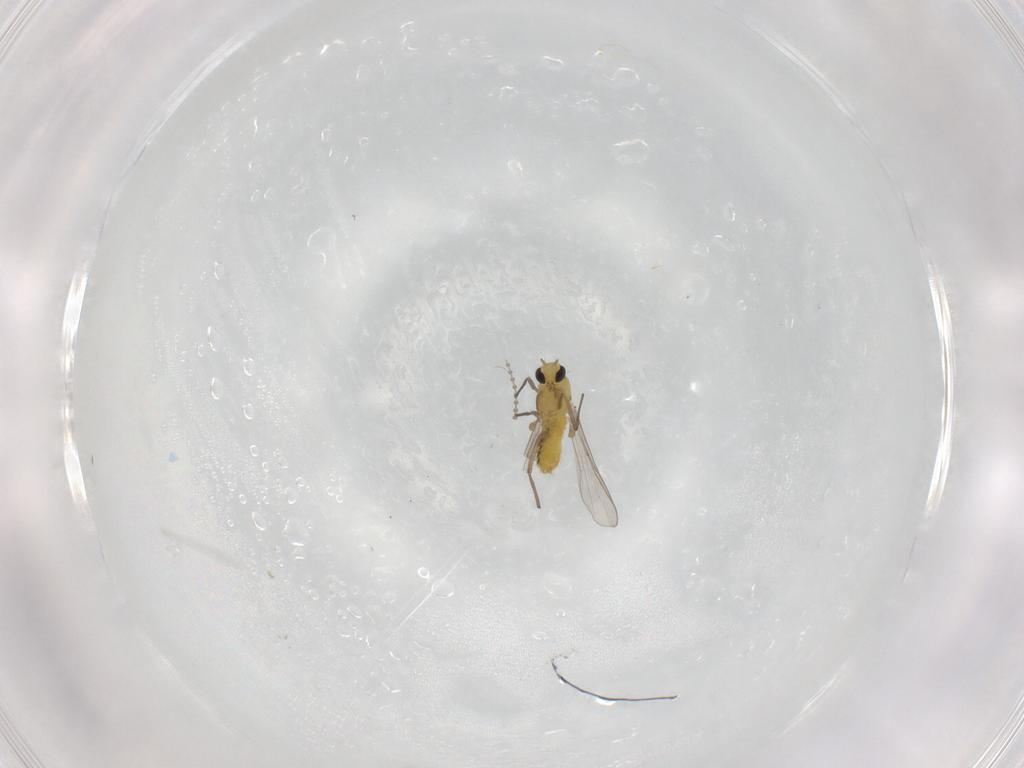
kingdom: Animalia
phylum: Arthropoda
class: Insecta
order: Diptera
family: Chironomidae
